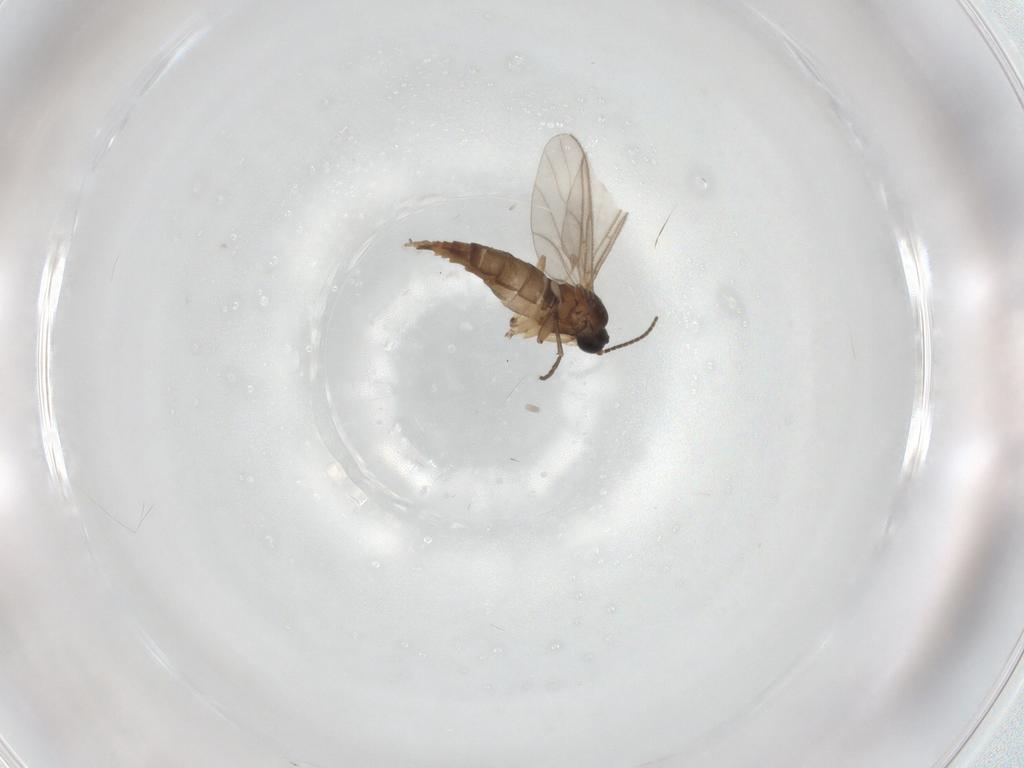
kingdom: Animalia
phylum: Arthropoda
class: Insecta
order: Diptera
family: Sciaridae
